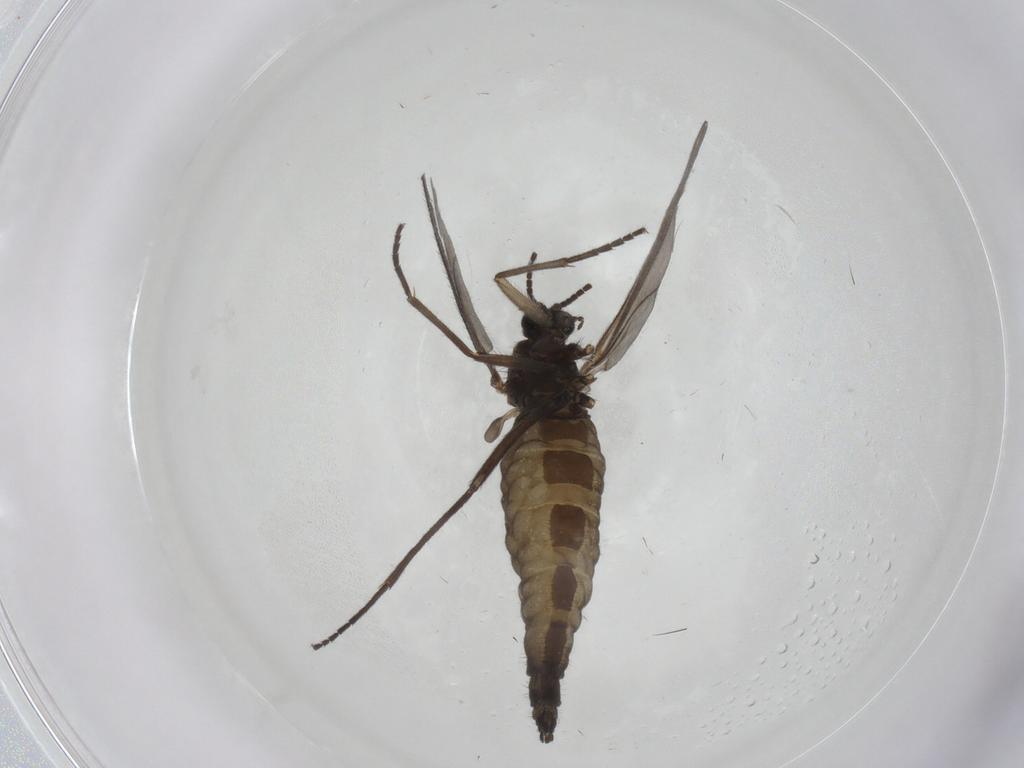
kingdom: Animalia
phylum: Arthropoda
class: Insecta
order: Diptera
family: Sciaridae
